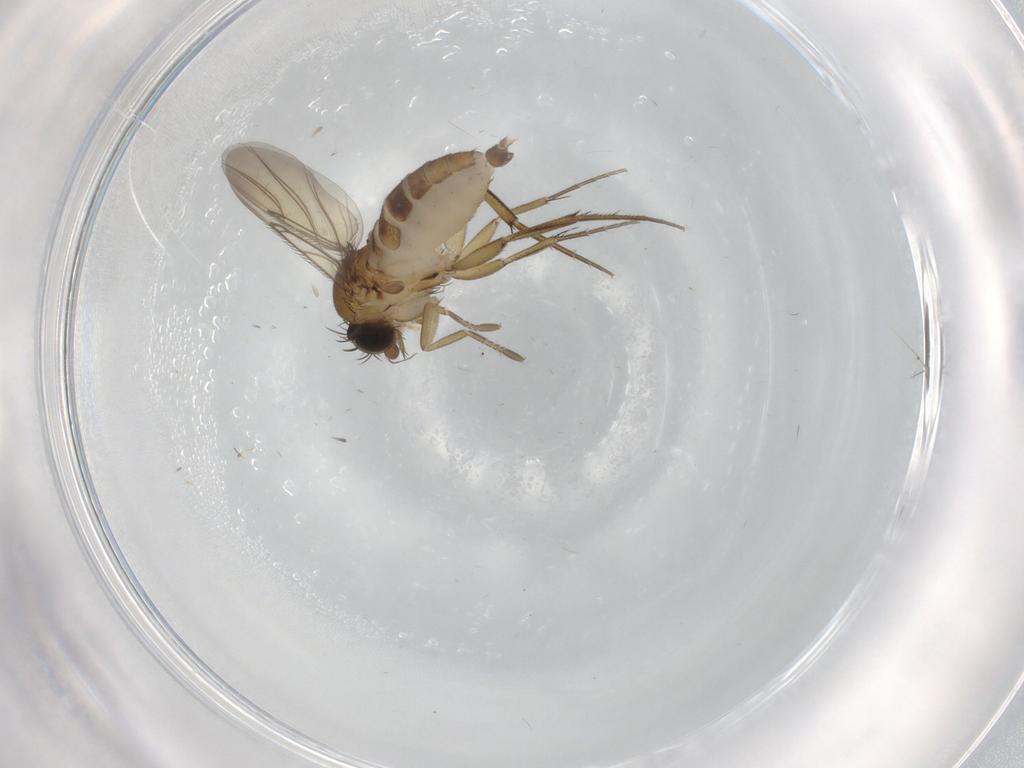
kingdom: Animalia
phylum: Arthropoda
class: Insecta
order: Diptera
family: Phoridae
